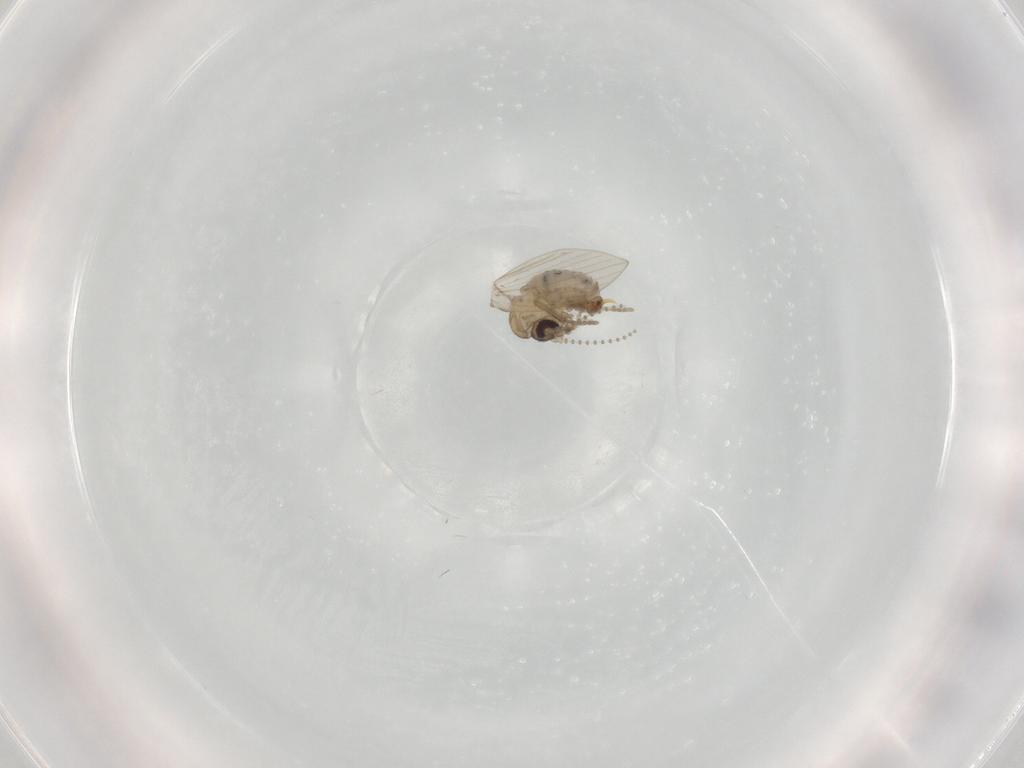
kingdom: Animalia
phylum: Arthropoda
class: Insecta
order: Diptera
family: Psychodidae
